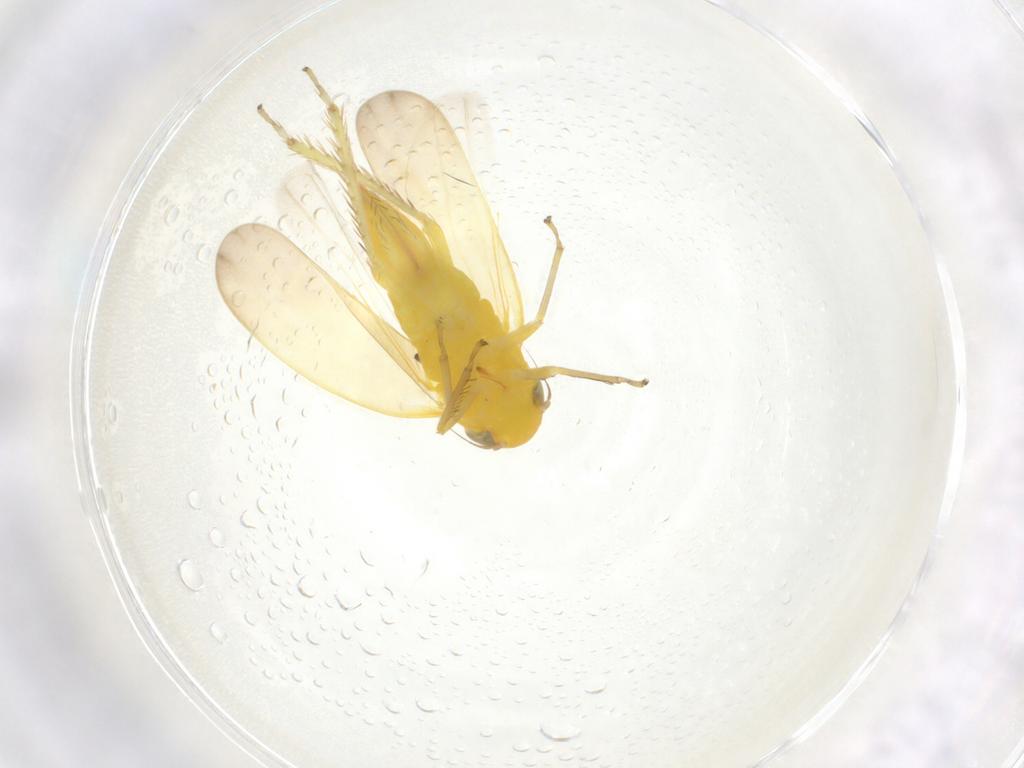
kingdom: Animalia
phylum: Arthropoda
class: Insecta
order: Hemiptera
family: Cicadellidae
